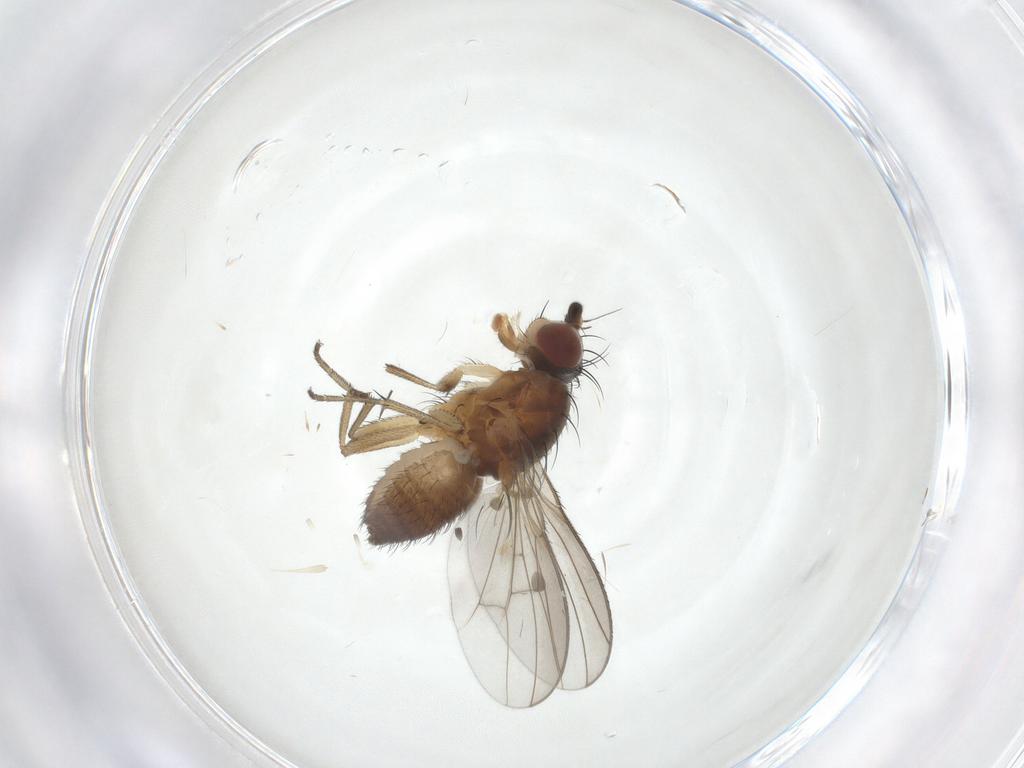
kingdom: Animalia
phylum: Arthropoda
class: Insecta
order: Diptera
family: Heleomyzidae
